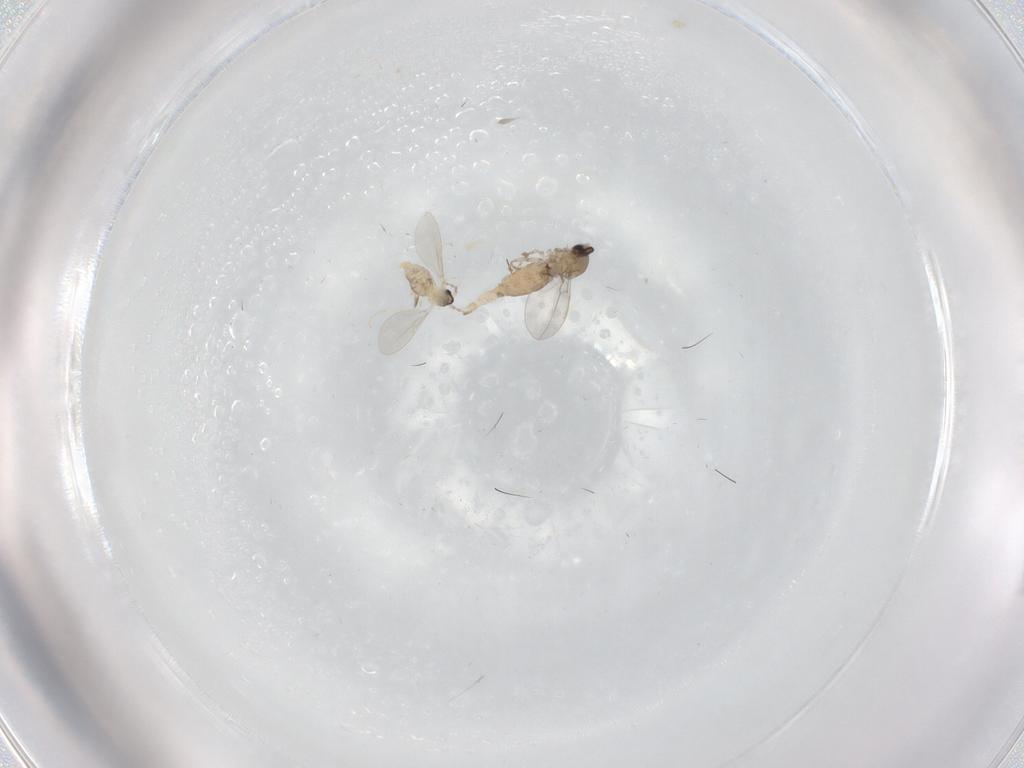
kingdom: Animalia
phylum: Arthropoda
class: Insecta
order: Diptera
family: Cecidomyiidae
